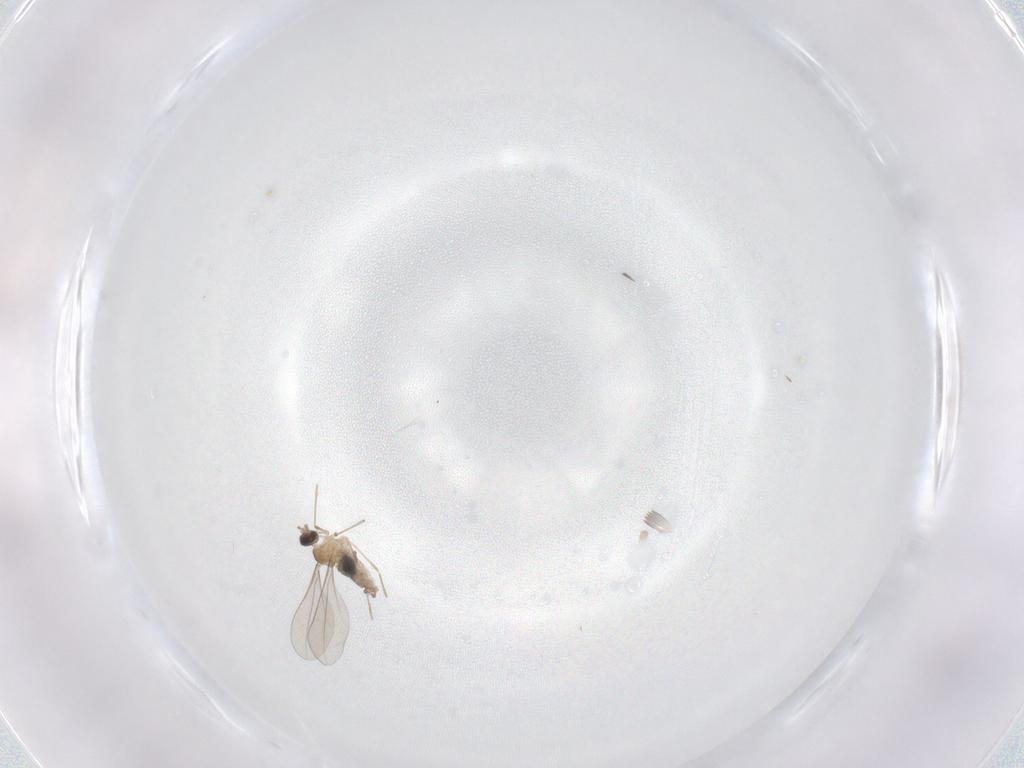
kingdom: Animalia
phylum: Arthropoda
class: Insecta
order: Diptera
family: Cecidomyiidae
